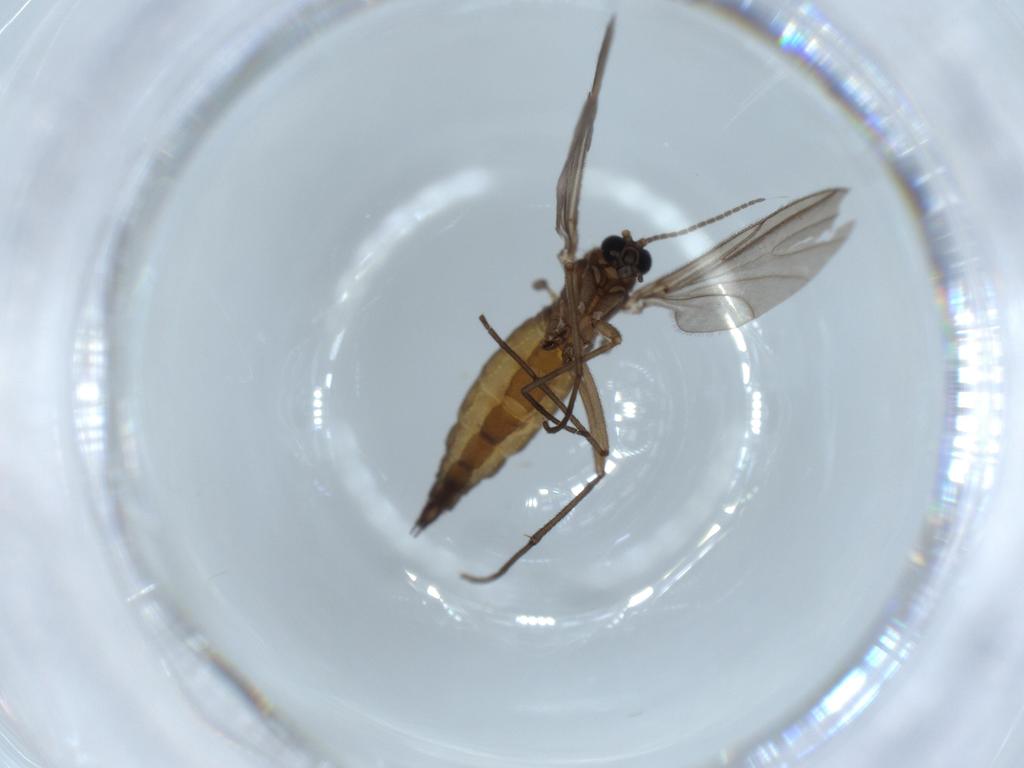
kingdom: Animalia
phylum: Arthropoda
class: Insecta
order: Diptera
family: Sciaridae
